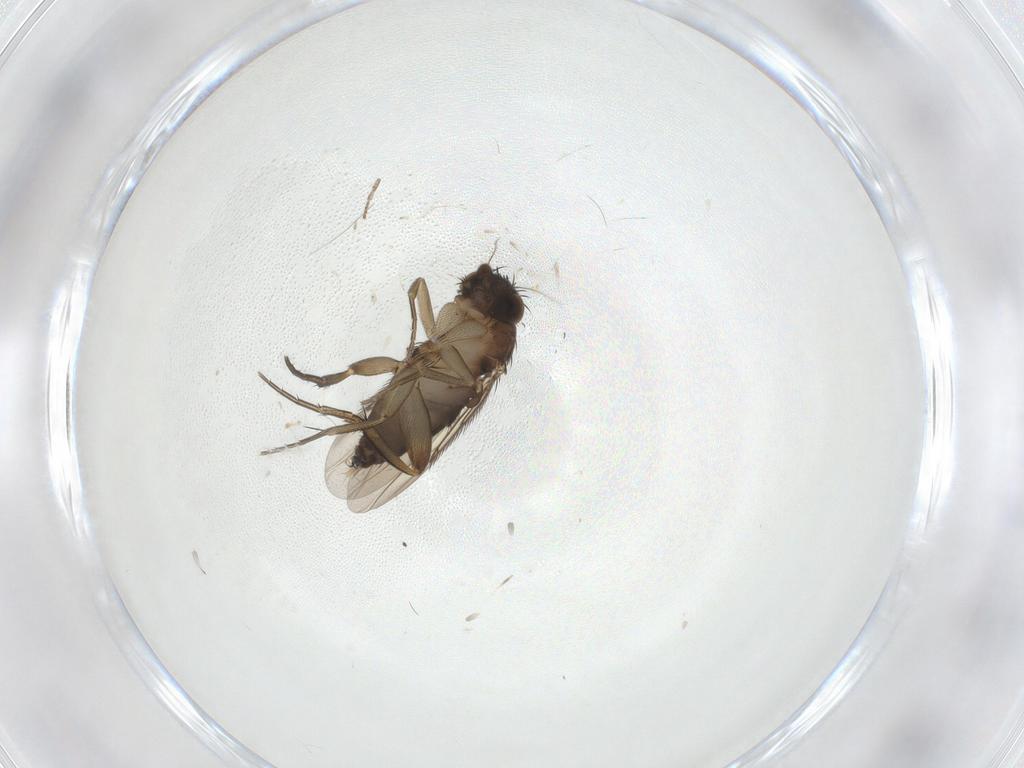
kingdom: Animalia
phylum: Arthropoda
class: Insecta
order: Diptera
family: Phoridae
